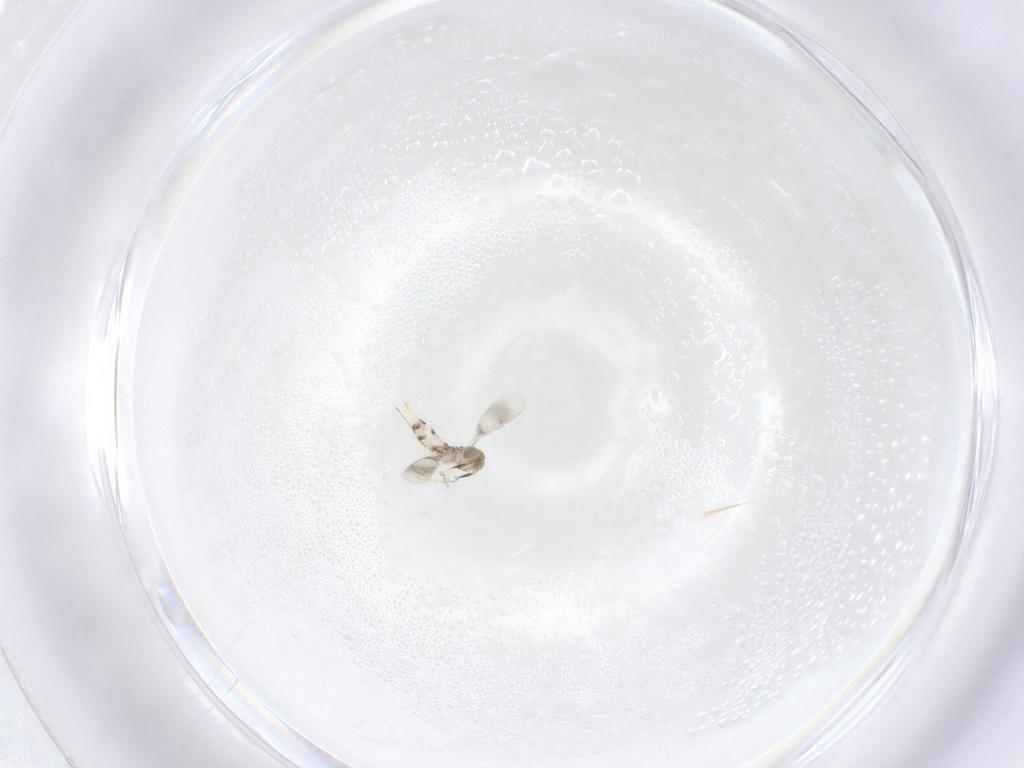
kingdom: Animalia
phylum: Arthropoda
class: Insecta
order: Hymenoptera
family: Aphelinidae
